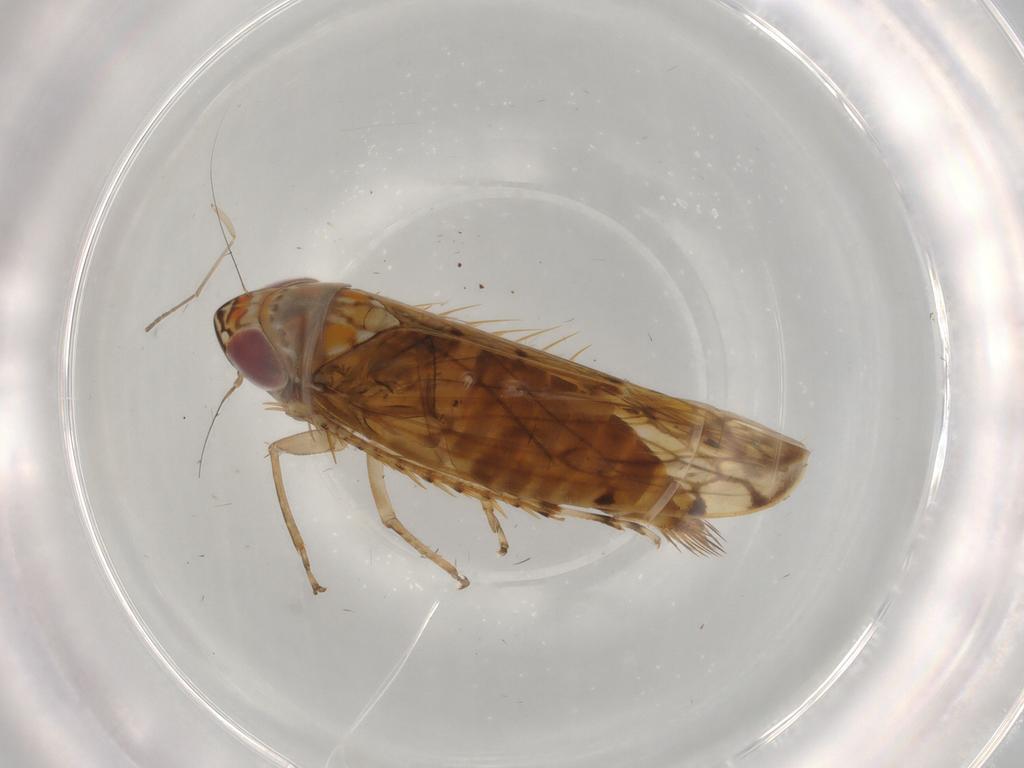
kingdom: Animalia
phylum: Arthropoda
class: Insecta
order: Hemiptera
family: Cicadellidae
